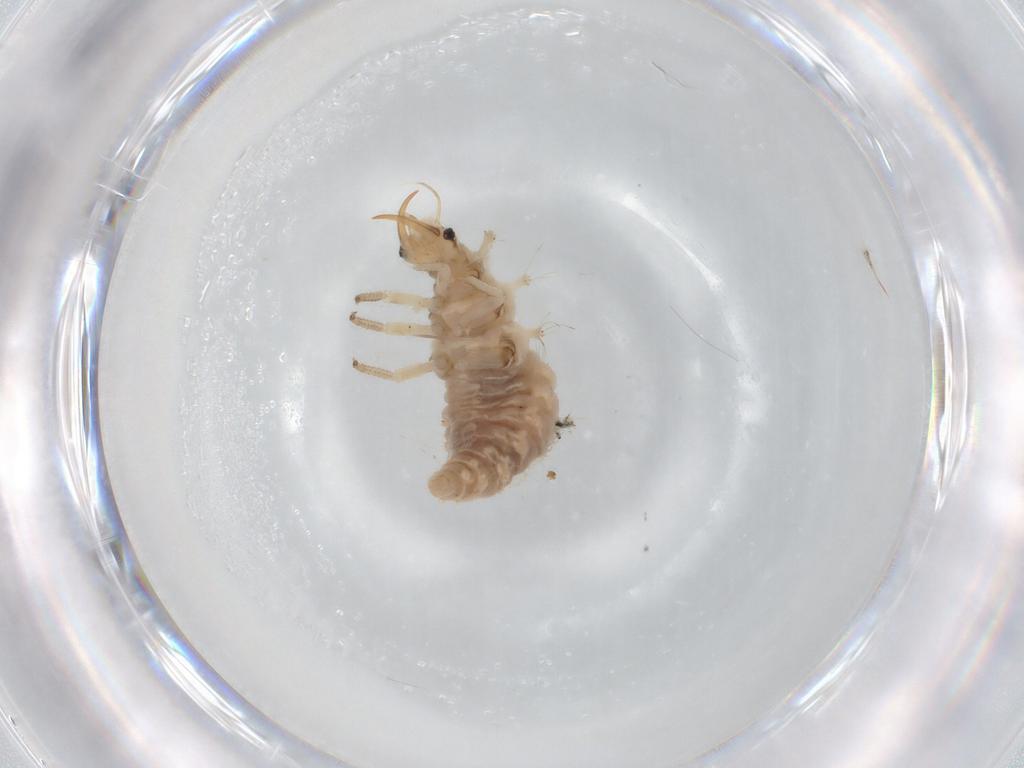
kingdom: Animalia
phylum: Arthropoda
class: Insecta
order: Diptera
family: Cecidomyiidae
